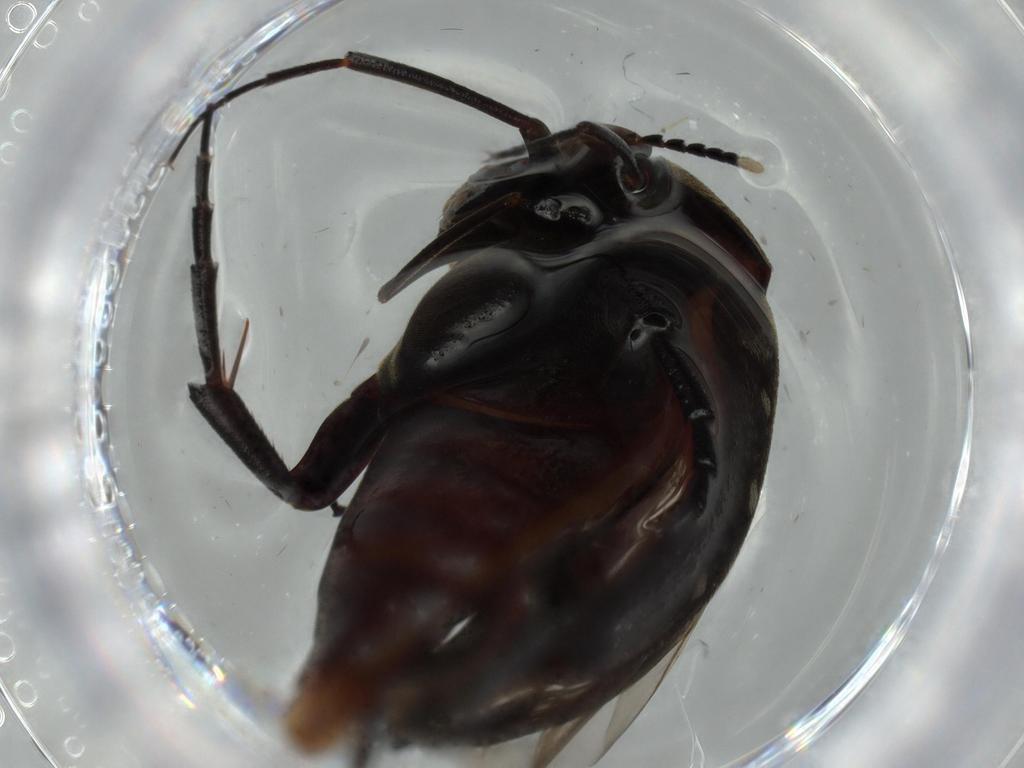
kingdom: Animalia
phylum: Arthropoda
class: Insecta
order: Coleoptera
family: Mordellidae
